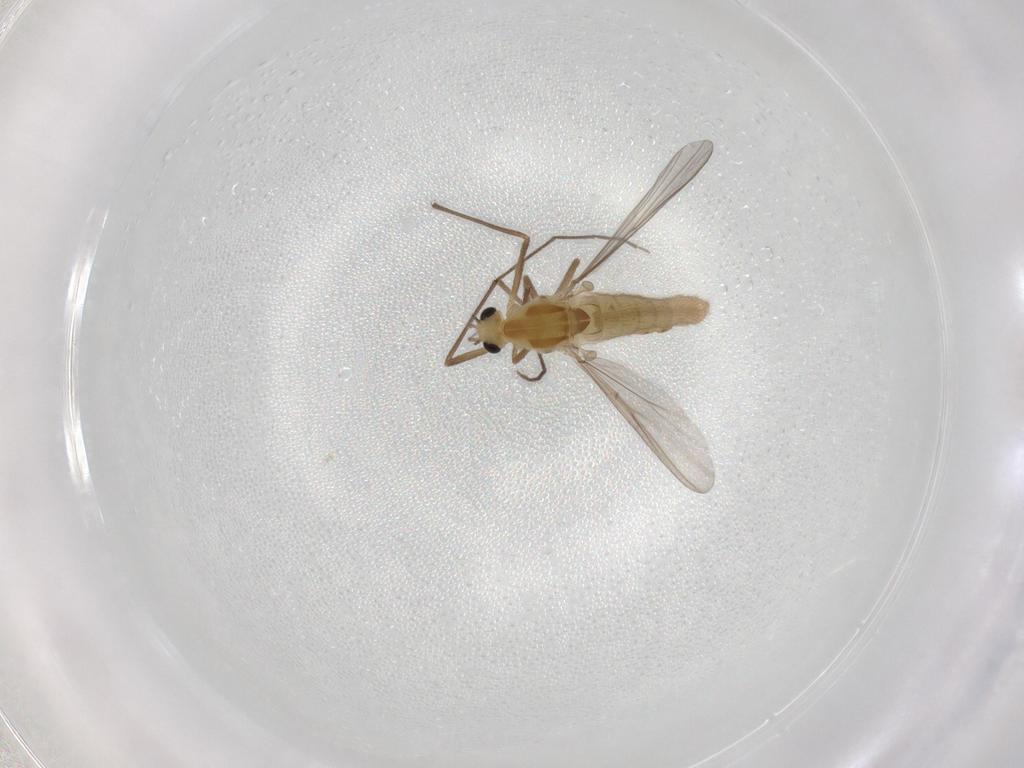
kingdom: Animalia
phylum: Arthropoda
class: Insecta
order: Diptera
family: Chironomidae
